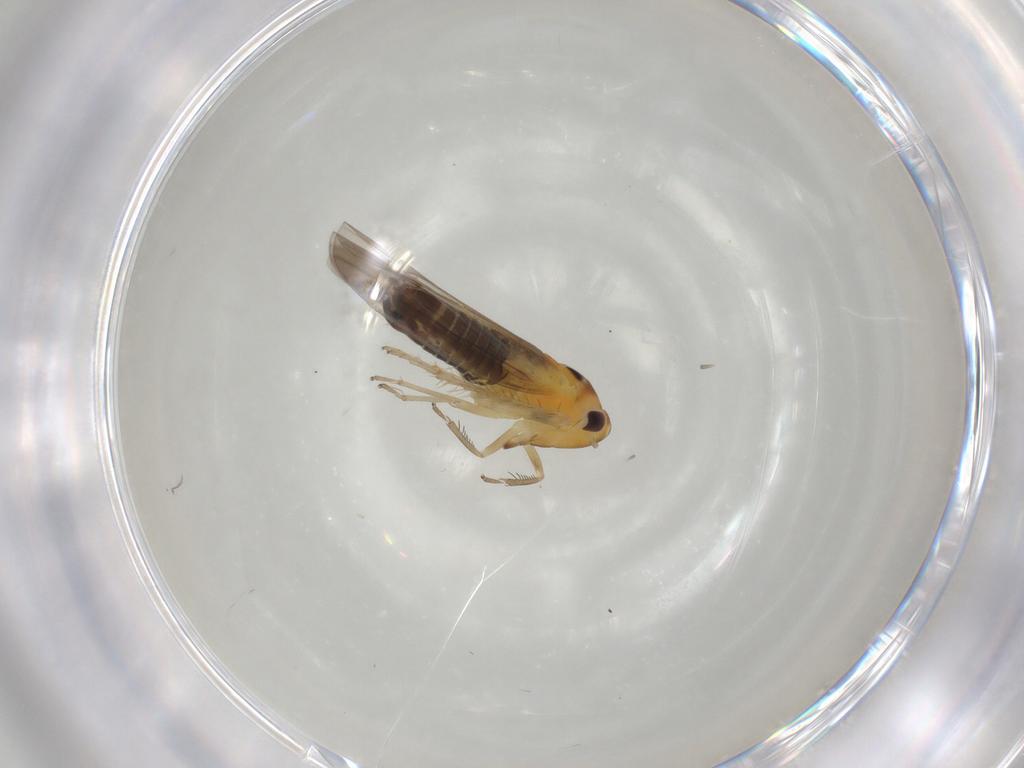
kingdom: Animalia
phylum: Arthropoda
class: Insecta
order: Hemiptera
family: Cicadellidae
